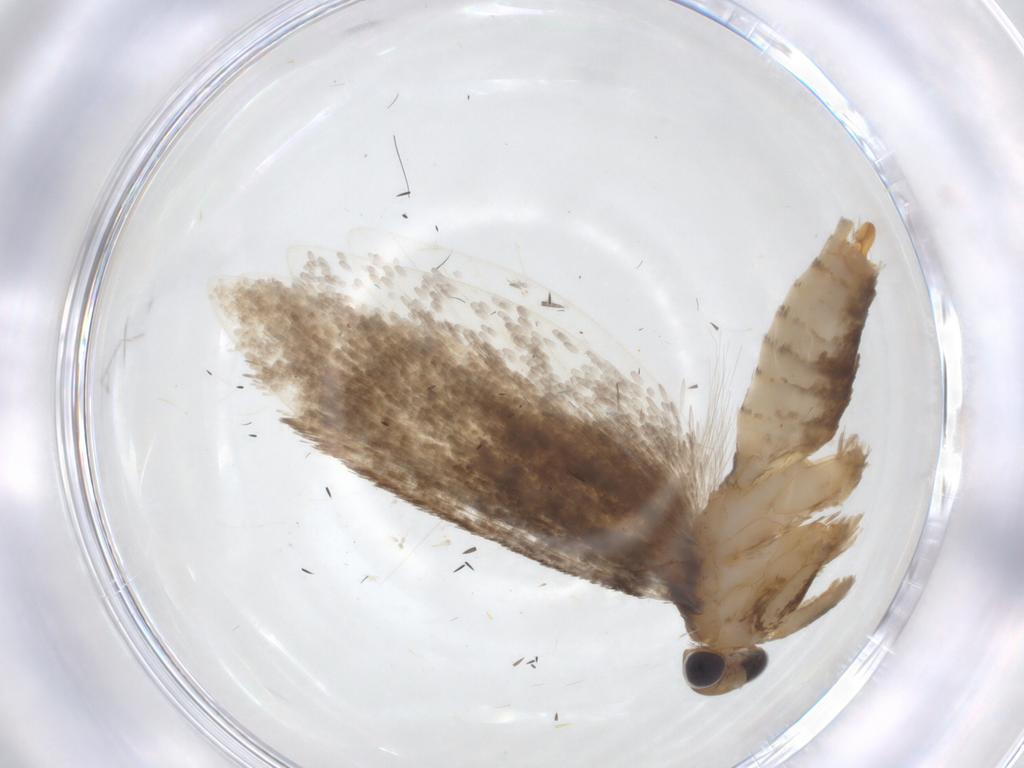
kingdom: Animalia
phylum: Arthropoda
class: Insecta
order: Lepidoptera
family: Tineidae
